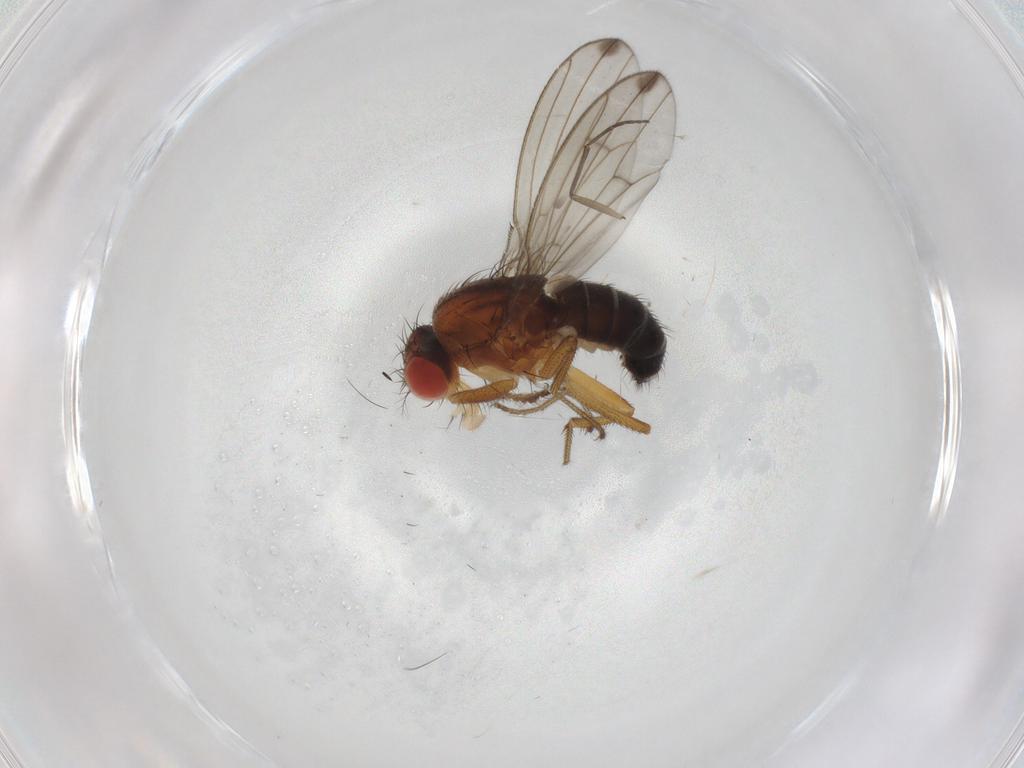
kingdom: Animalia
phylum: Arthropoda
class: Insecta
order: Diptera
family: Drosophilidae
